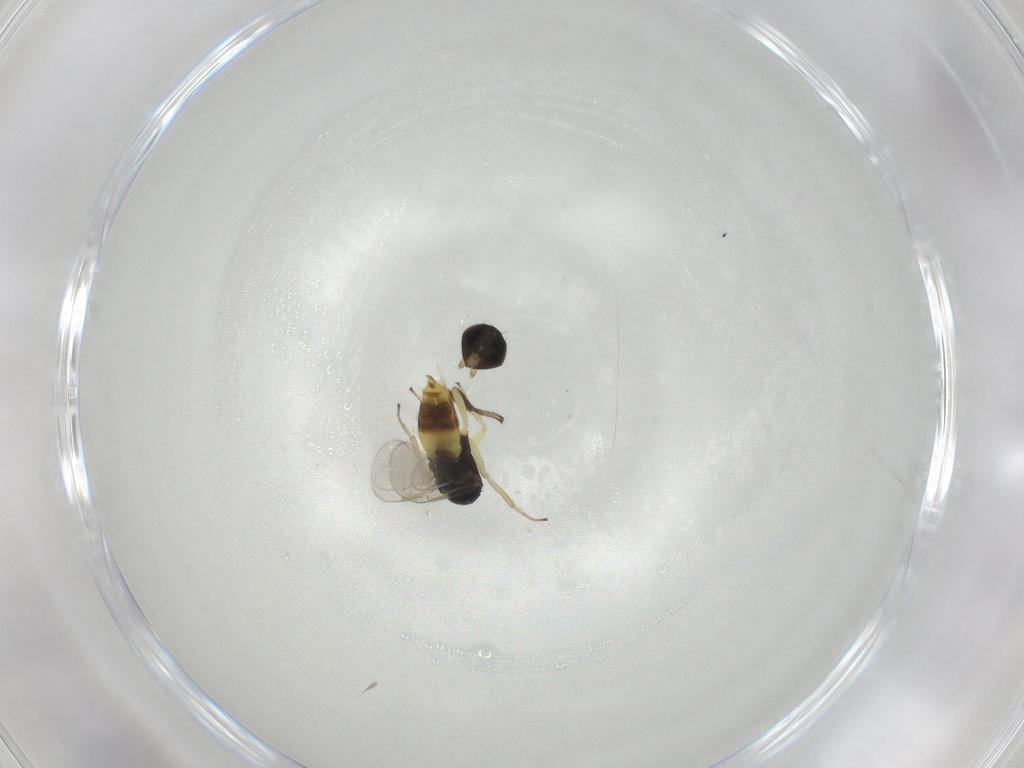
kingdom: Animalia
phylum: Arthropoda
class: Insecta
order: Hymenoptera
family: Aphelinidae
